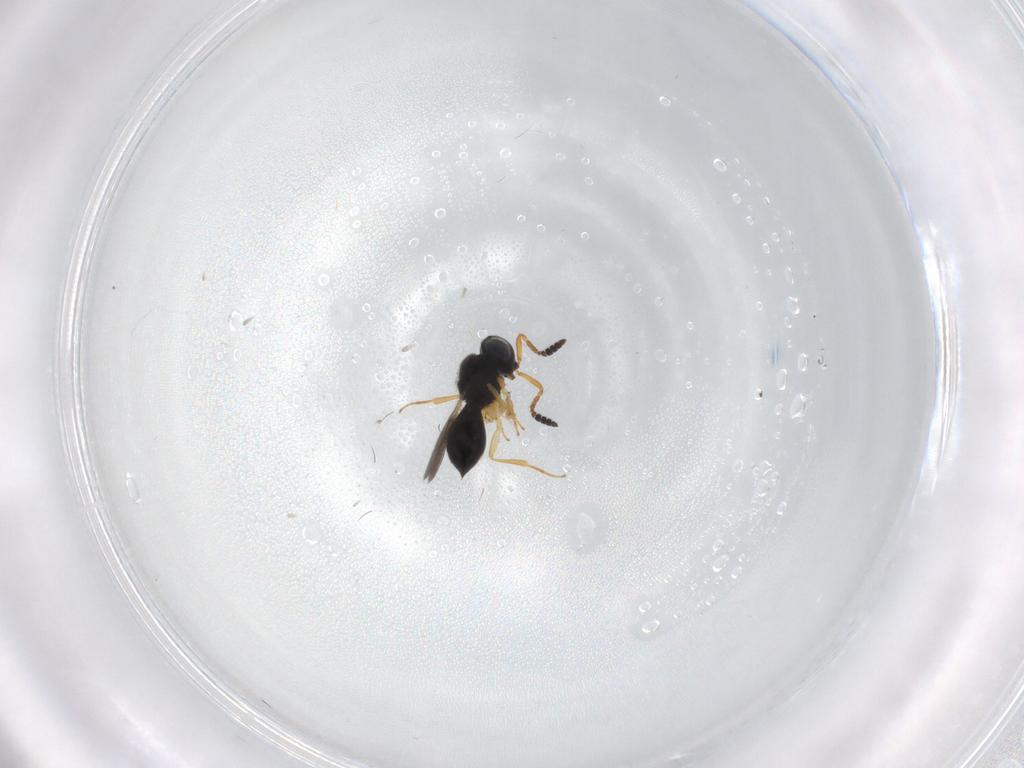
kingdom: Animalia
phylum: Arthropoda
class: Insecta
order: Hymenoptera
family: Scelionidae
